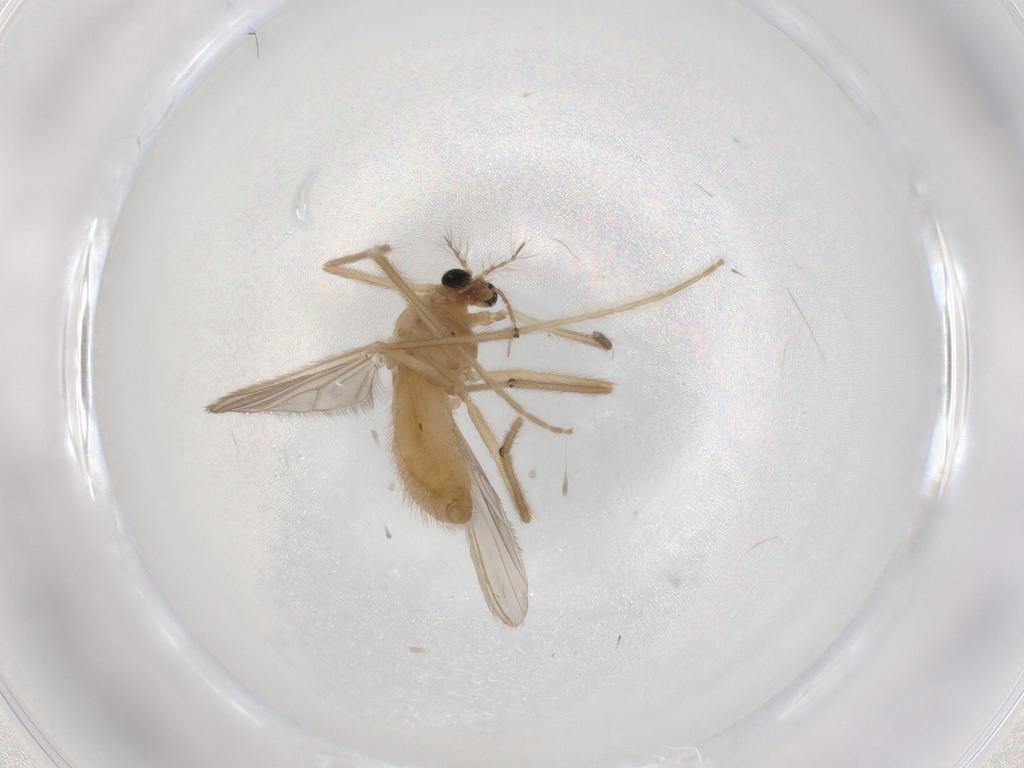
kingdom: Animalia
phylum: Arthropoda
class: Insecta
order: Diptera
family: Chironomidae
